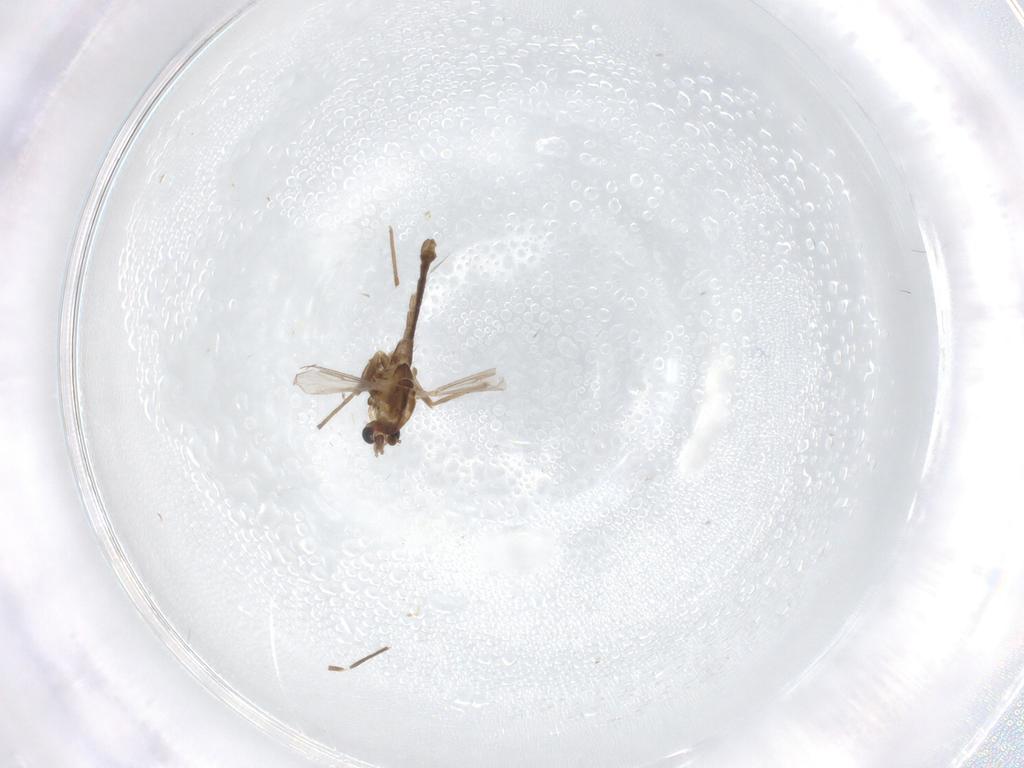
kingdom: Animalia
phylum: Arthropoda
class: Insecta
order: Diptera
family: Chironomidae
